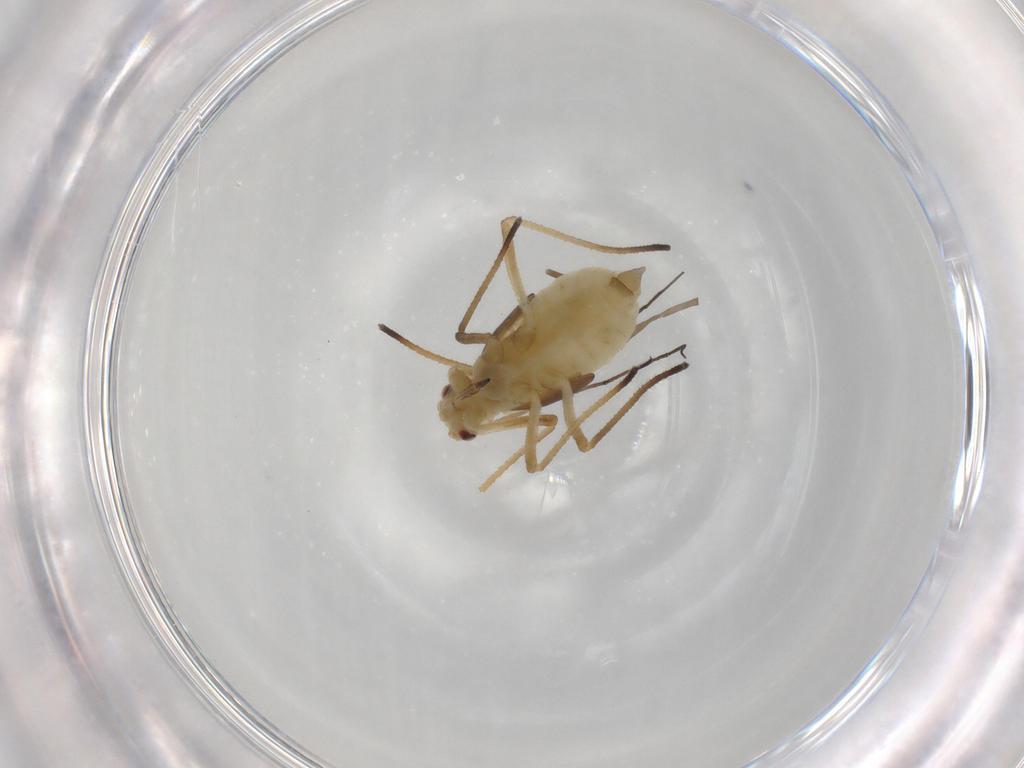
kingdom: Animalia
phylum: Arthropoda
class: Insecta
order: Hemiptera
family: Aphididae
